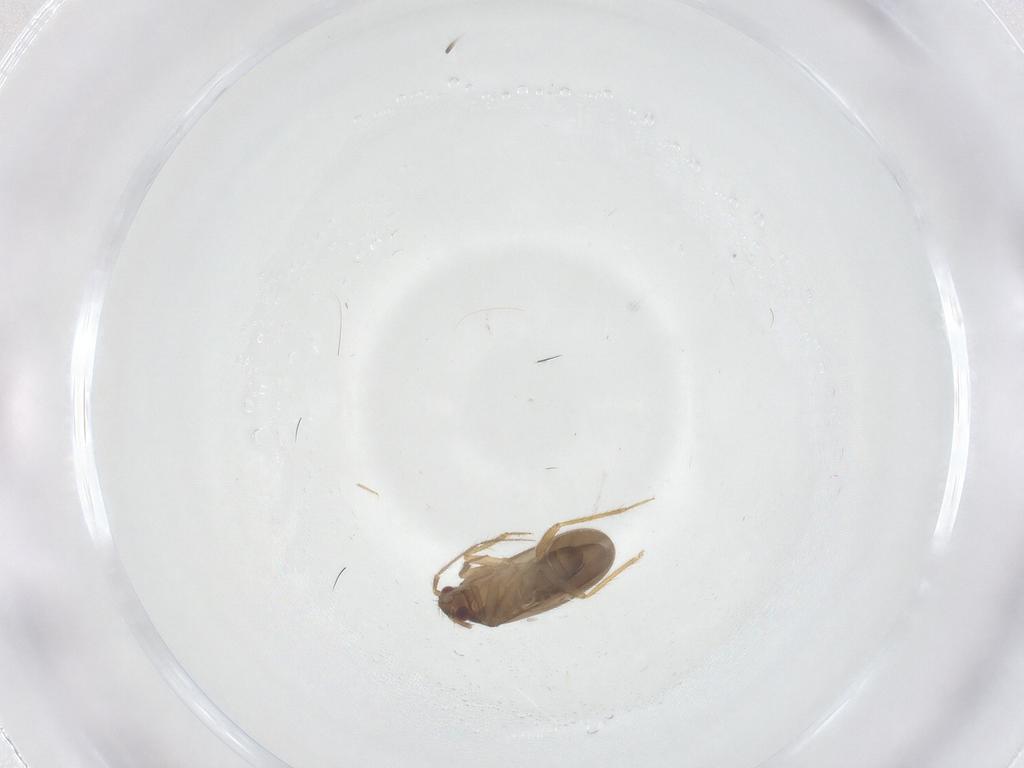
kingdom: Animalia
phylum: Arthropoda
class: Insecta
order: Hemiptera
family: Ceratocombidae
